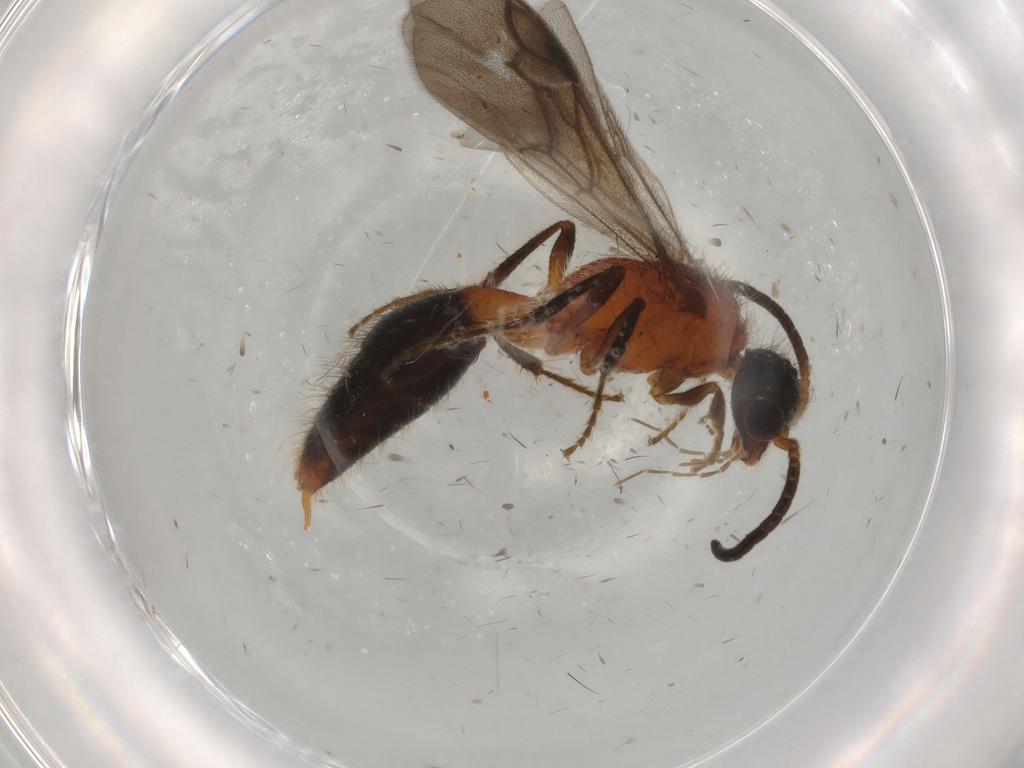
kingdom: Animalia
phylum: Arthropoda
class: Insecta
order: Hymenoptera
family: Mutillidae
